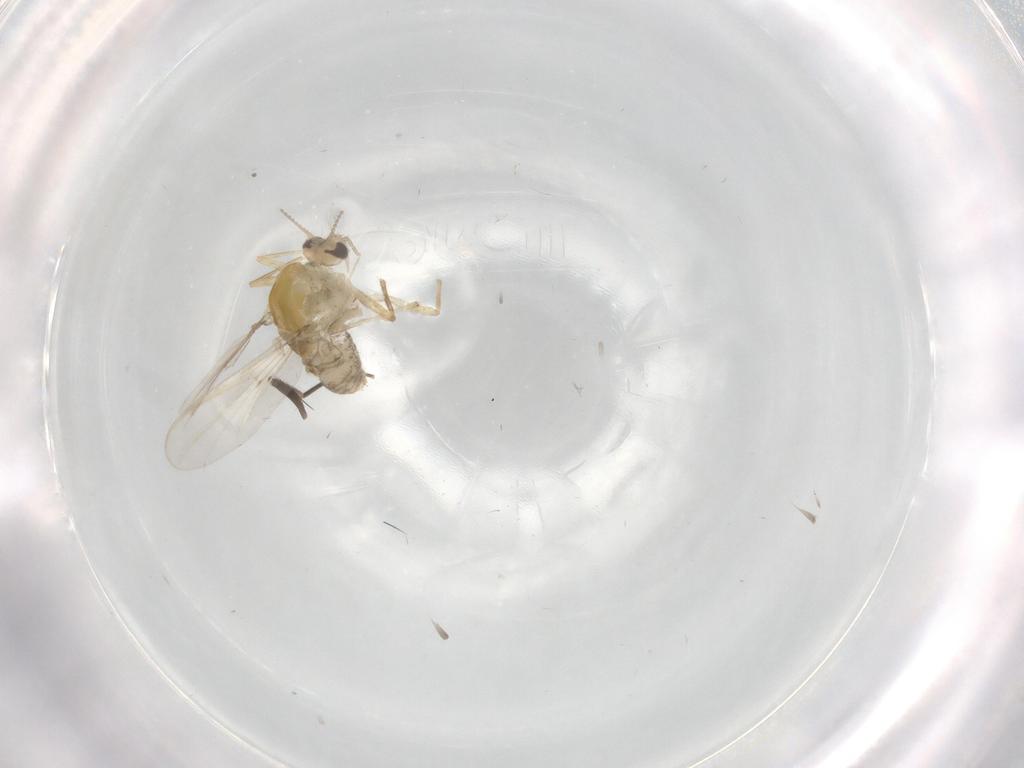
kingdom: Animalia
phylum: Arthropoda
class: Insecta
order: Diptera
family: Chironomidae
